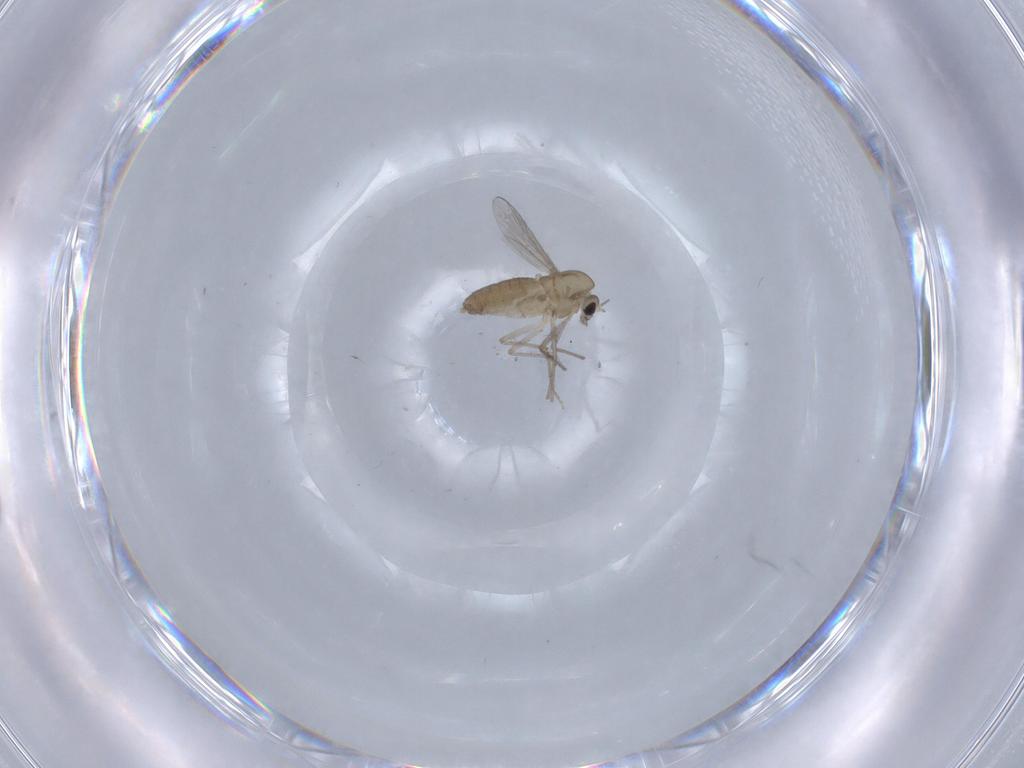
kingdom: Animalia
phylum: Arthropoda
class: Insecta
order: Diptera
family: Chironomidae
